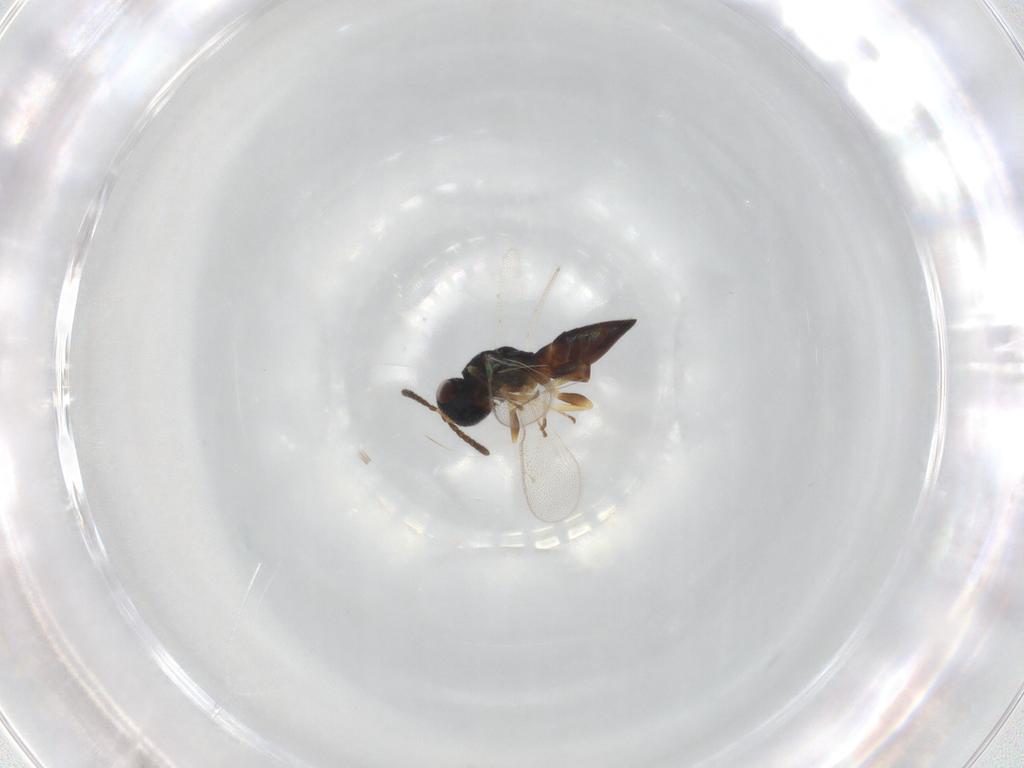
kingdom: Animalia
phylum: Arthropoda
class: Insecta
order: Hymenoptera
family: Pteromalidae
